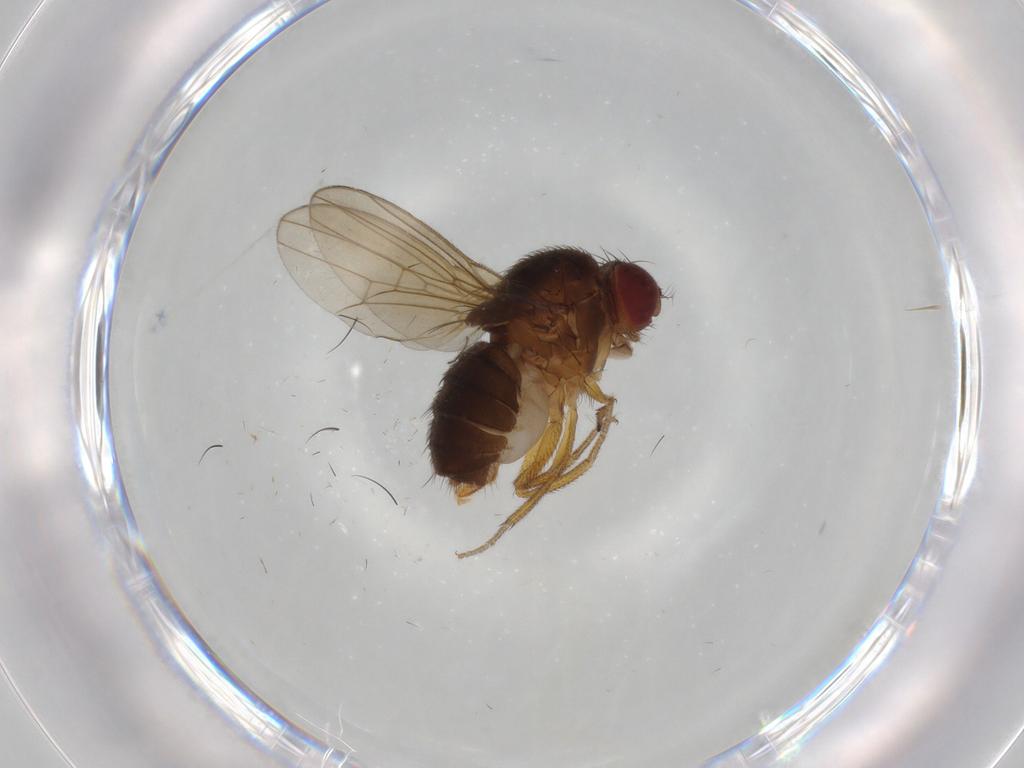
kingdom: Animalia
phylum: Arthropoda
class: Insecta
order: Diptera
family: Drosophilidae
